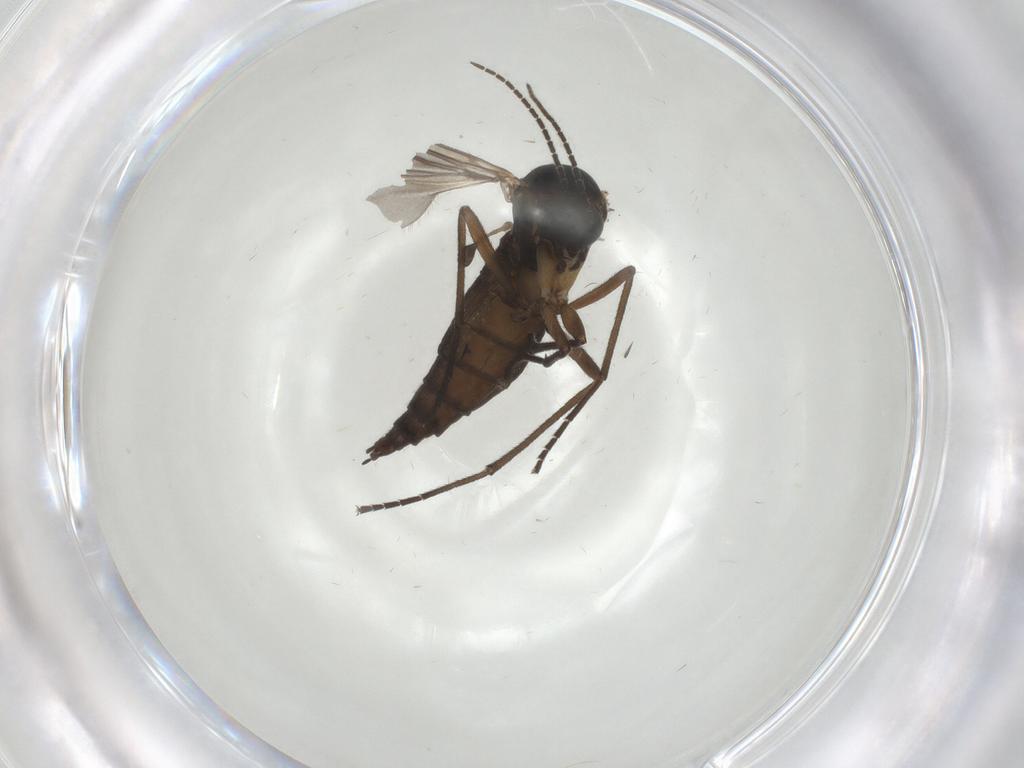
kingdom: Animalia
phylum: Arthropoda
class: Insecta
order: Diptera
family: Sciaridae
